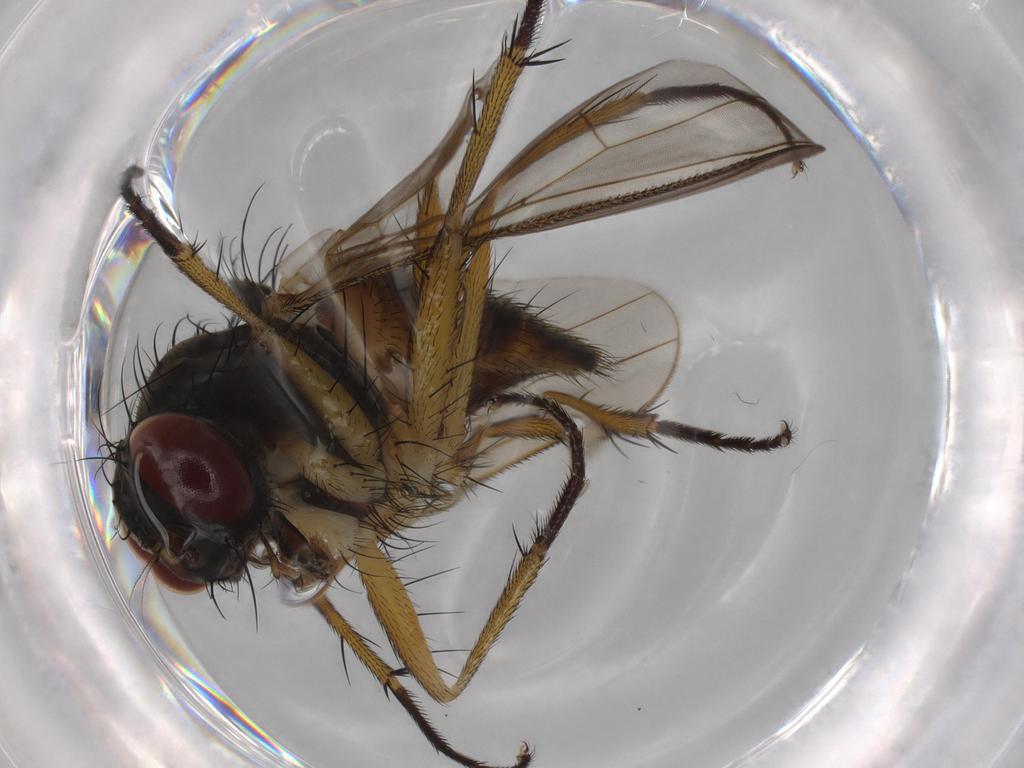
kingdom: Animalia
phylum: Arthropoda
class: Insecta
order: Diptera
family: Muscidae
